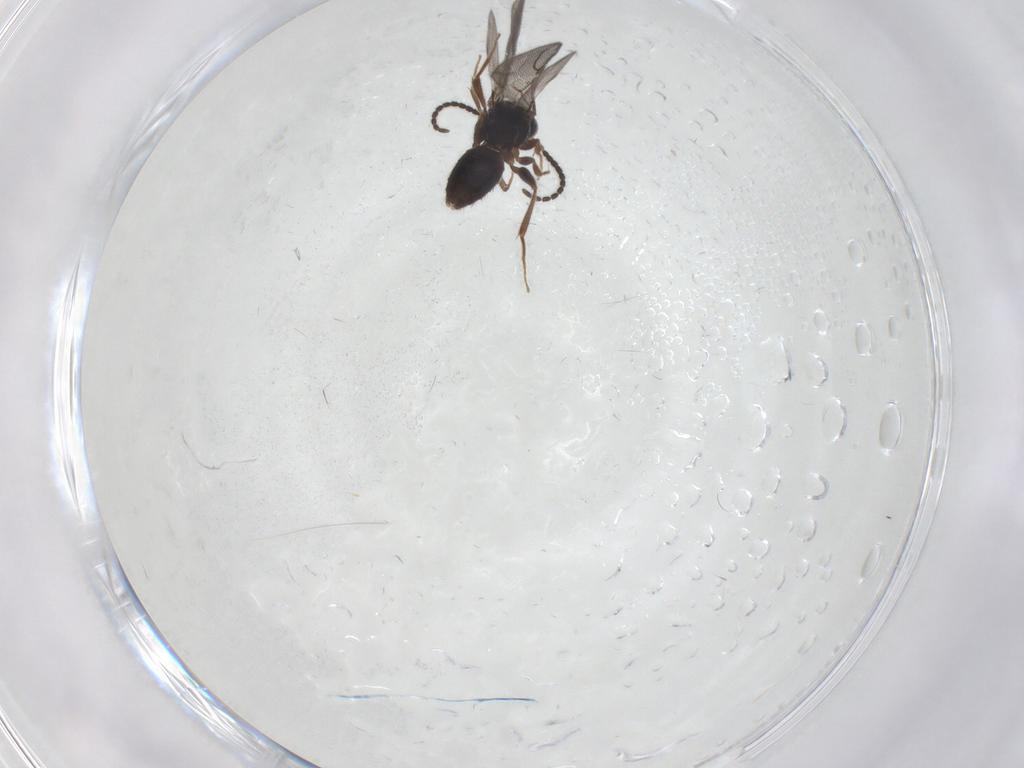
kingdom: Animalia
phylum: Arthropoda
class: Insecta
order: Hymenoptera
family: Bethylidae
